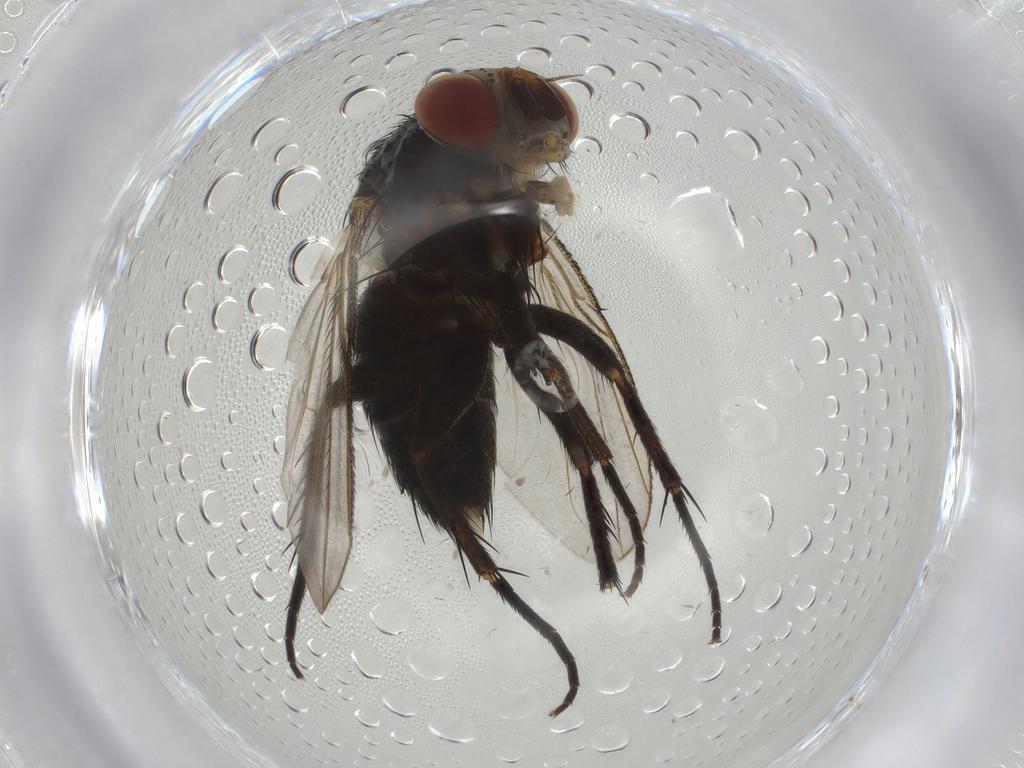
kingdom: Animalia
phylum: Arthropoda
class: Insecta
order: Diptera
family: Tachinidae
